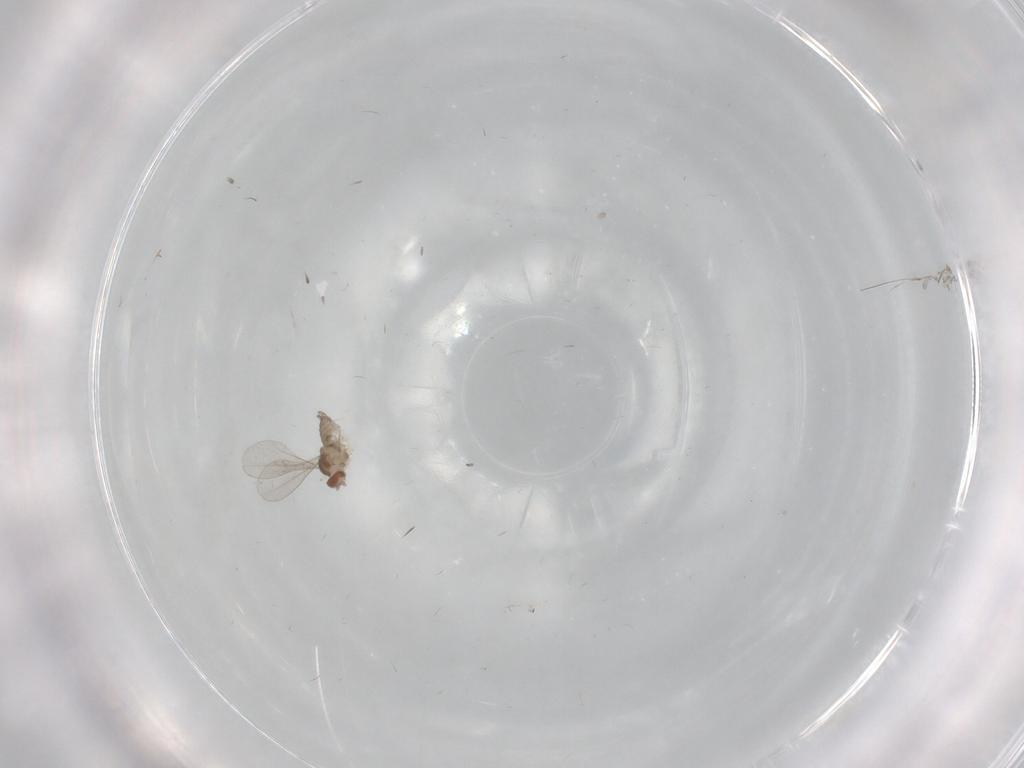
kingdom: Animalia
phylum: Arthropoda
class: Insecta
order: Diptera
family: Cecidomyiidae
